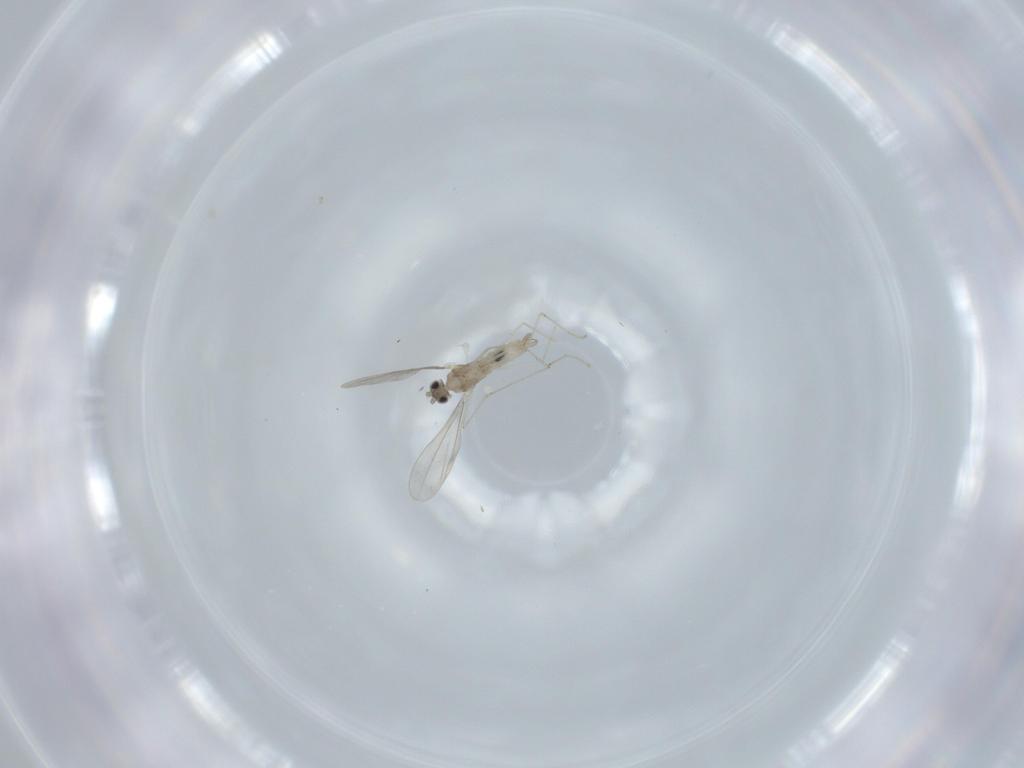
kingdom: Animalia
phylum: Arthropoda
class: Insecta
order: Diptera
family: Cecidomyiidae
